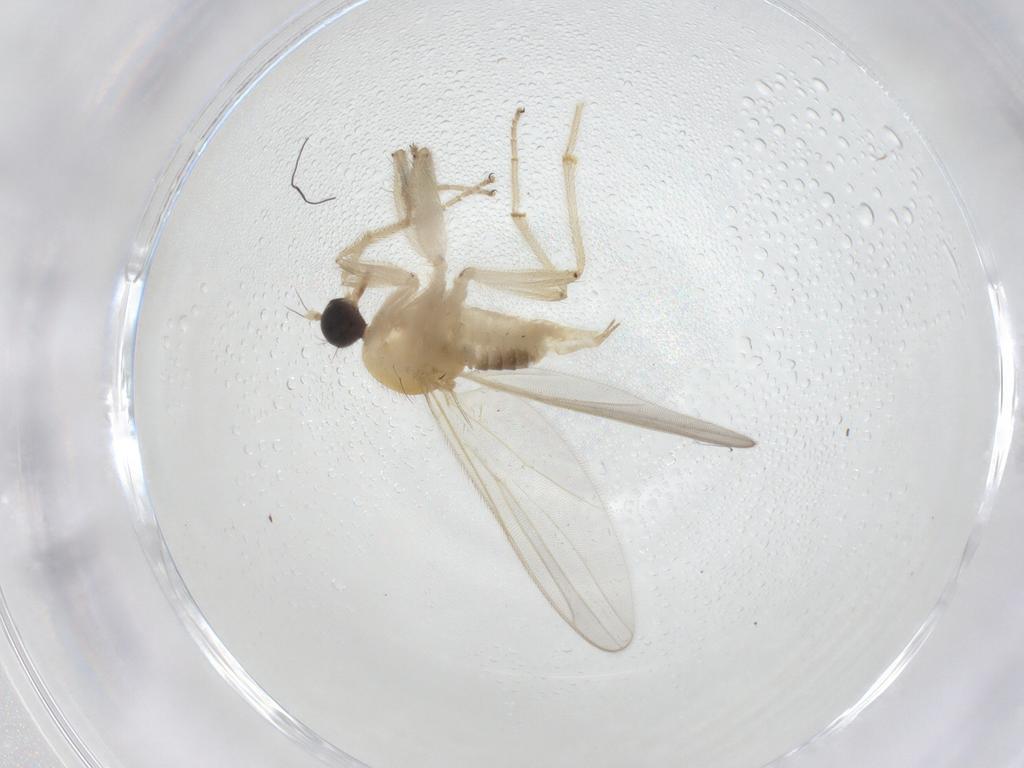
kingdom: Animalia
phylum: Arthropoda
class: Insecta
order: Diptera
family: Hybotidae
